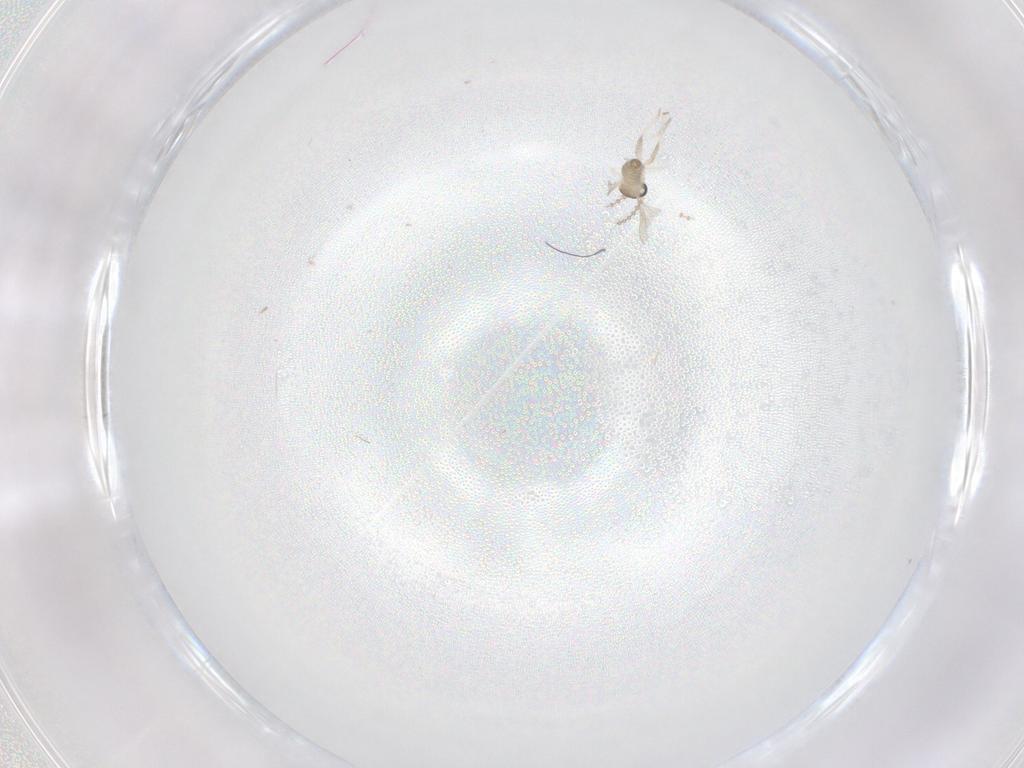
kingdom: Animalia
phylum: Arthropoda
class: Insecta
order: Diptera
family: Cecidomyiidae
